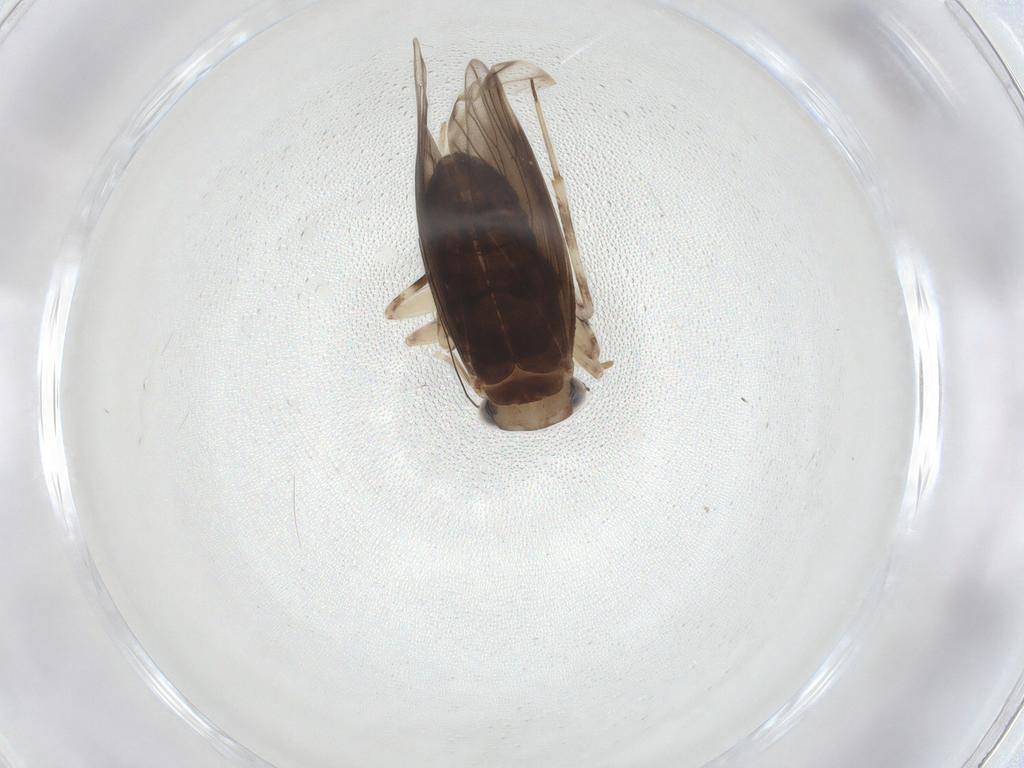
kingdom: Animalia
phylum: Arthropoda
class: Insecta
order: Psocodea
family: Amphientomidae
